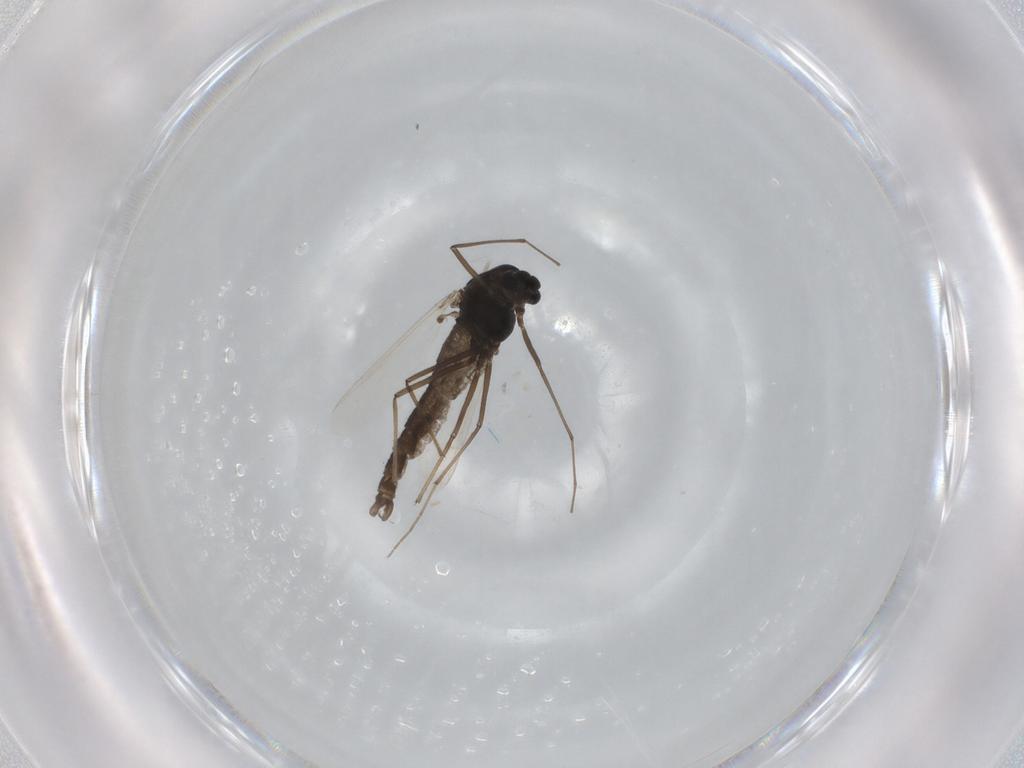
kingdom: Animalia
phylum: Arthropoda
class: Insecta
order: Diptera
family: Chironomidae
